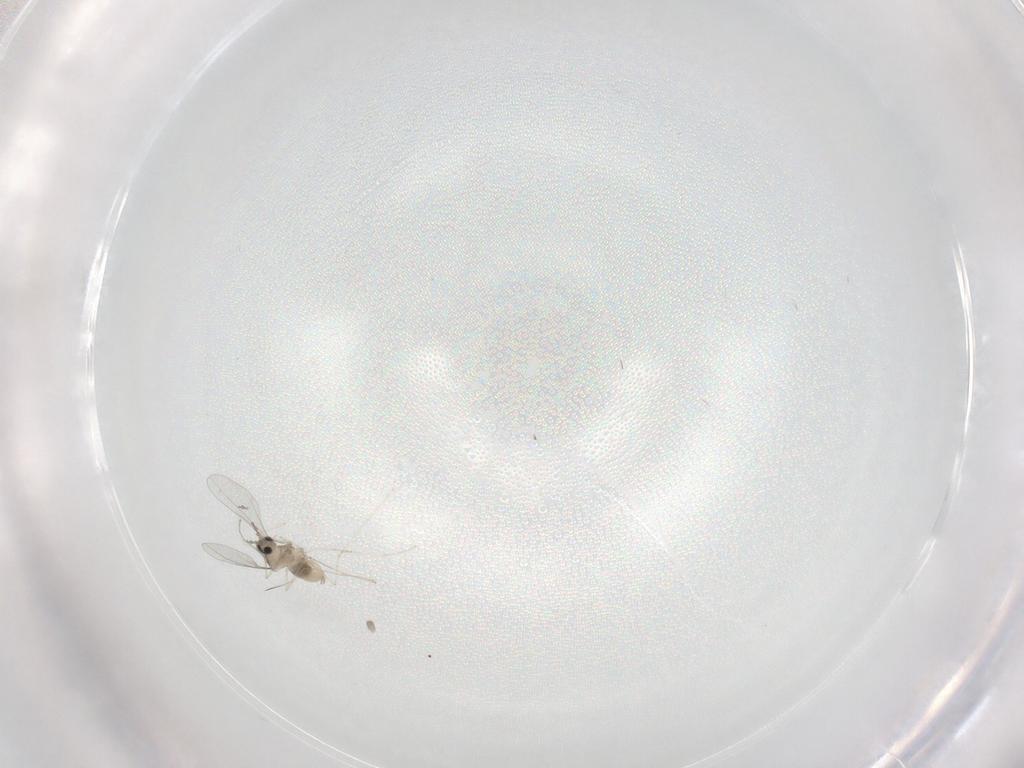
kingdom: Animalia
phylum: Arthropoda
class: Insecta
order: Diptera
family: Cecidomyiidae
